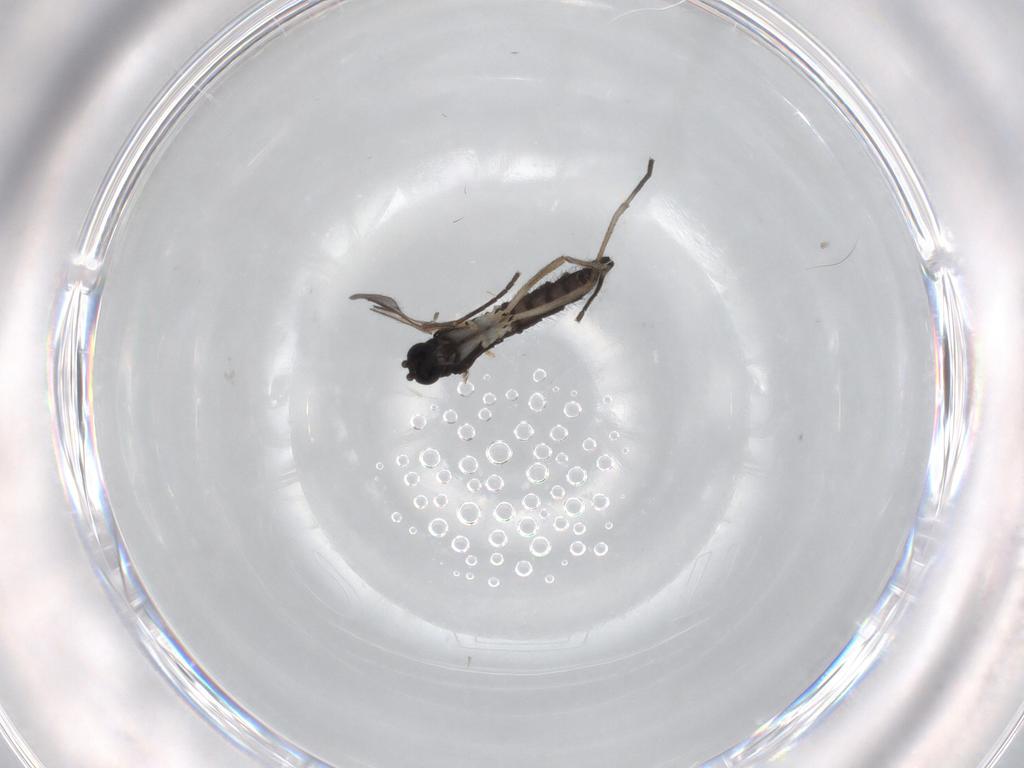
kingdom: Animalia
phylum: Arthropoda
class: Insecta
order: Diptera
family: Sciaridae
